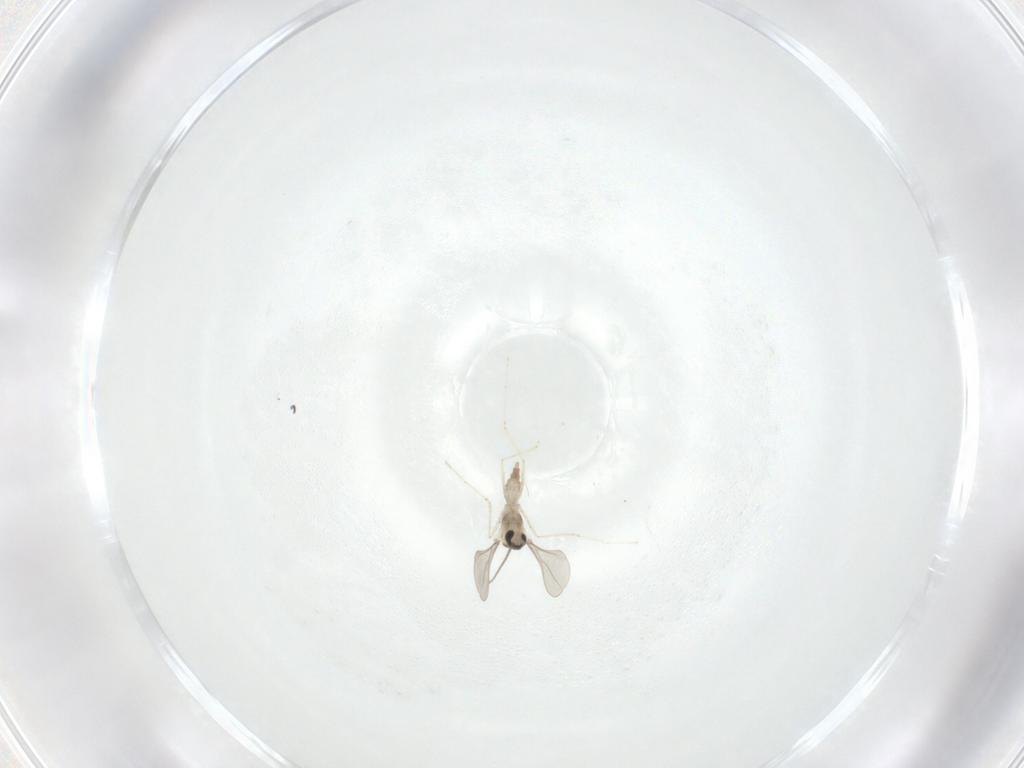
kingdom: Animalia
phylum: Arthropoda
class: Insecta
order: Diptera
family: Cecidomyiidae
